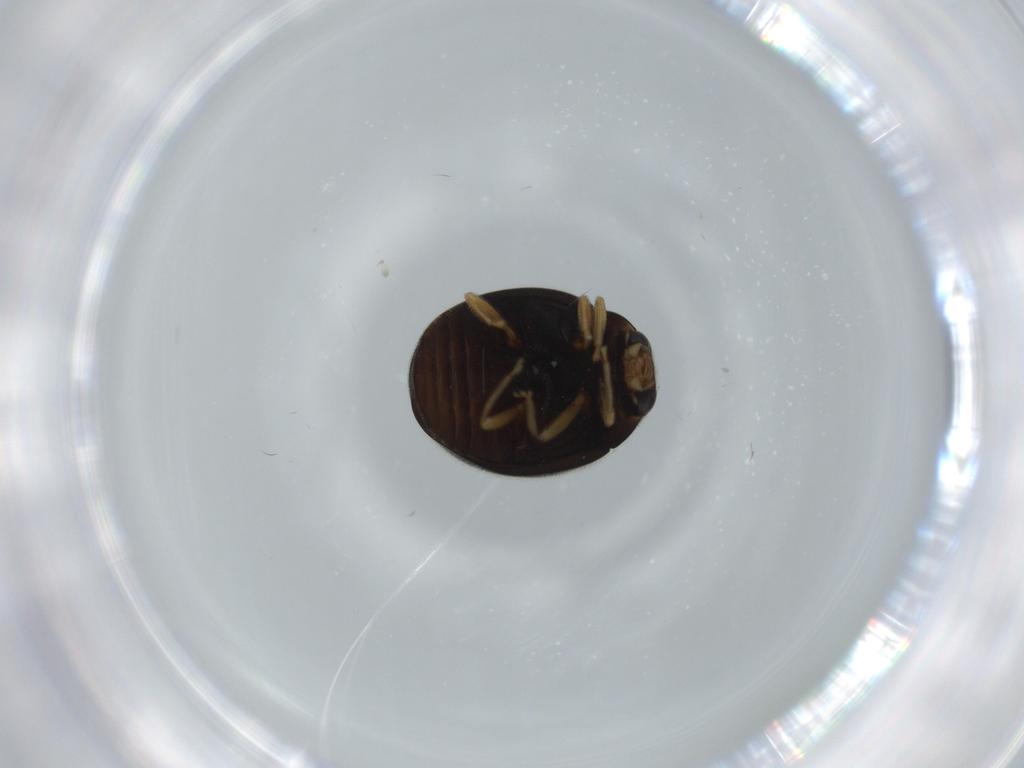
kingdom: Animalia
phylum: Arthropoda
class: Insecta
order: Coleoptera
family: Coccinellidae
